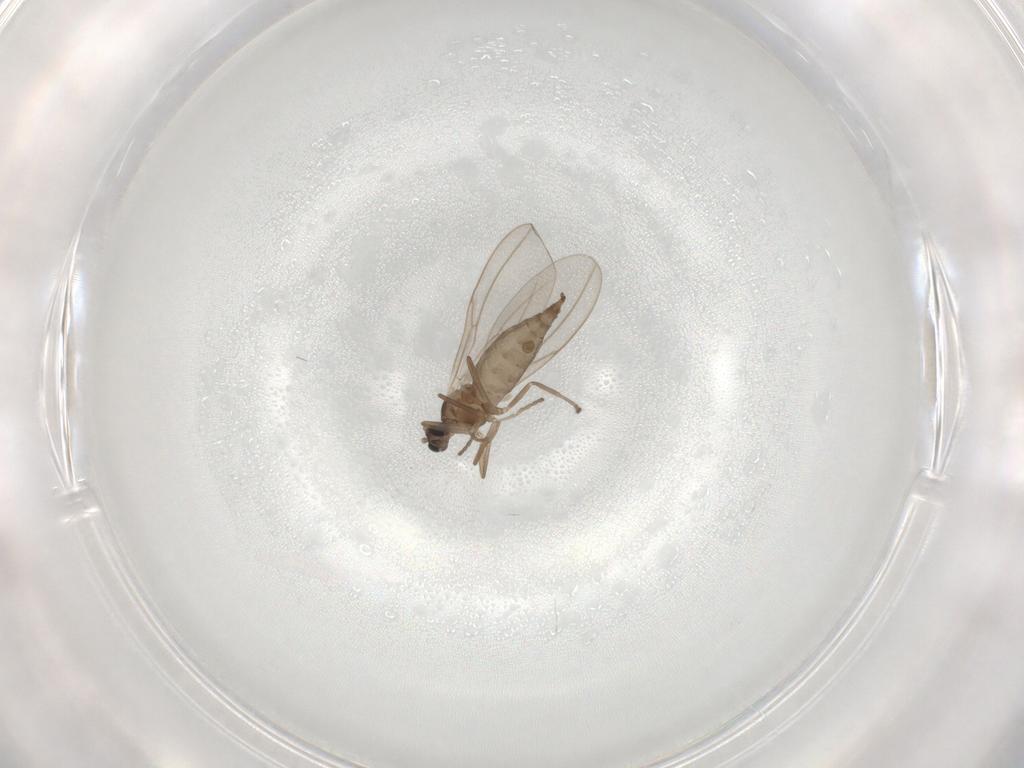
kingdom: Animalia
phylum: Arthropoda
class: Insecta
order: Diptera
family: Cecidomyiidae
